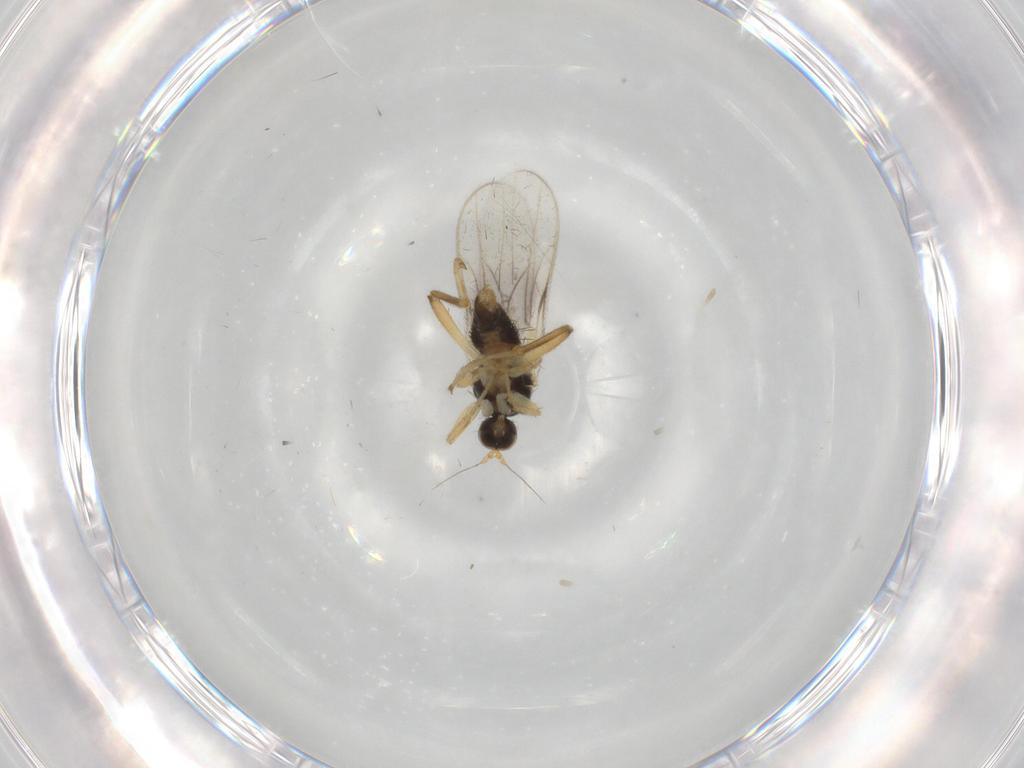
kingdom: Animalia
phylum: Arthropoda
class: Insecta
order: Diptera
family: Hybotidae
